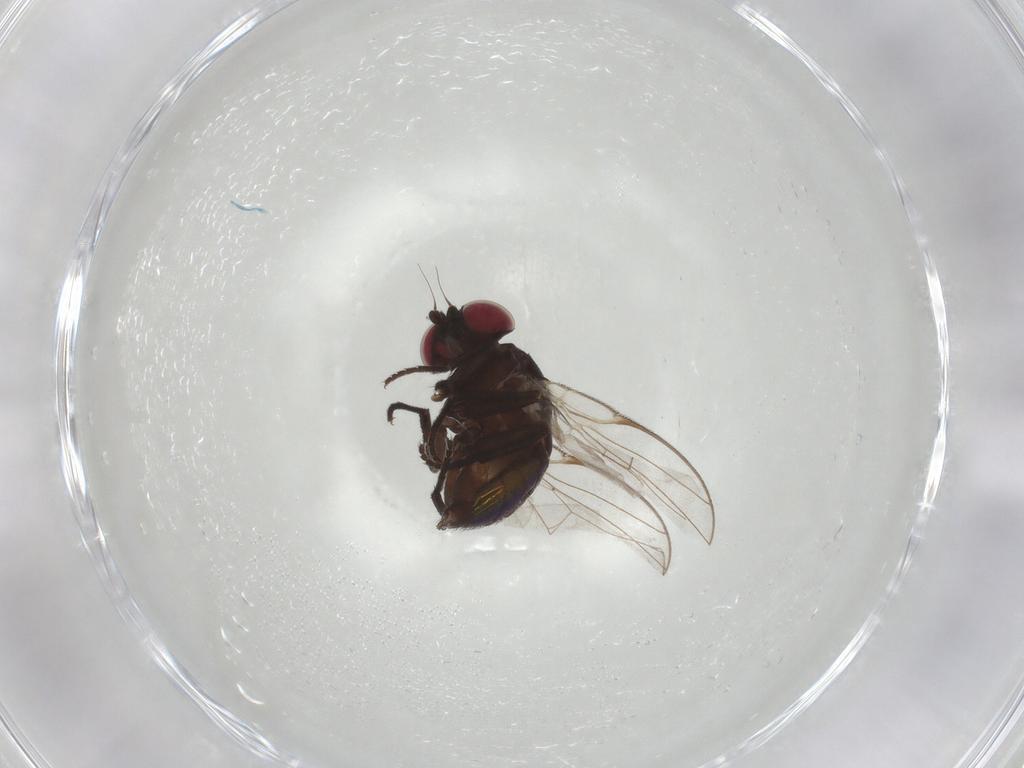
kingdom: Animalia
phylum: Arthropoda
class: Insecta
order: Diptera
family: Agromyzidae
